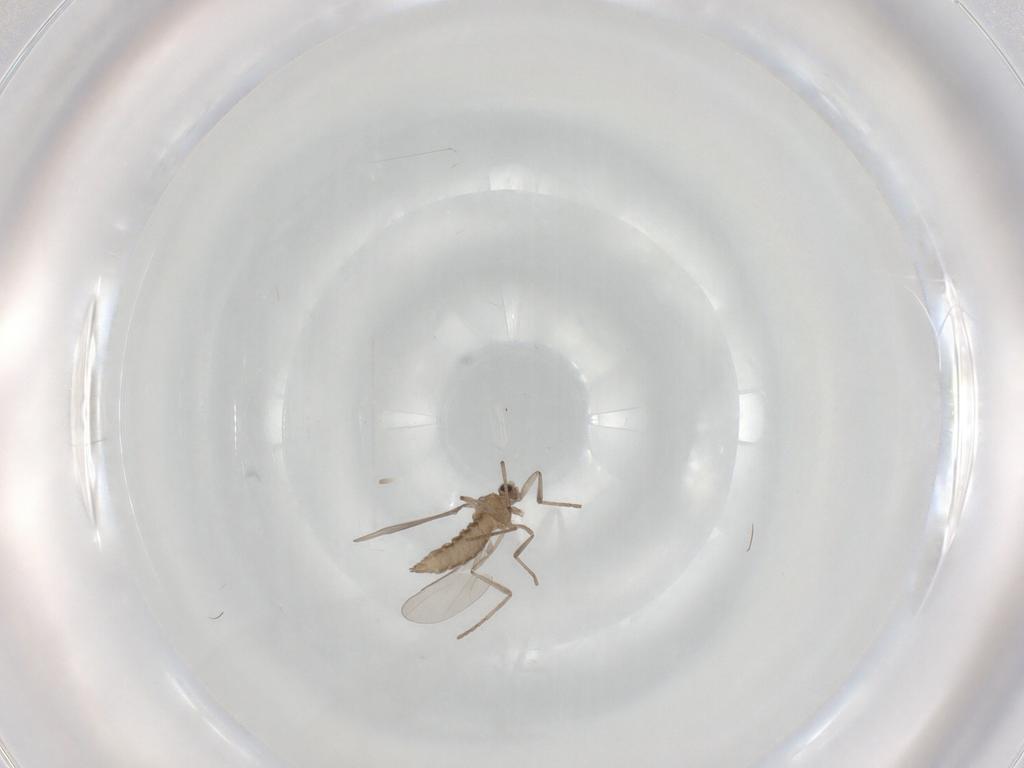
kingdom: Animalia
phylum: Arthropoda
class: Insecta
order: Diptera
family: Cecidomyiidae
